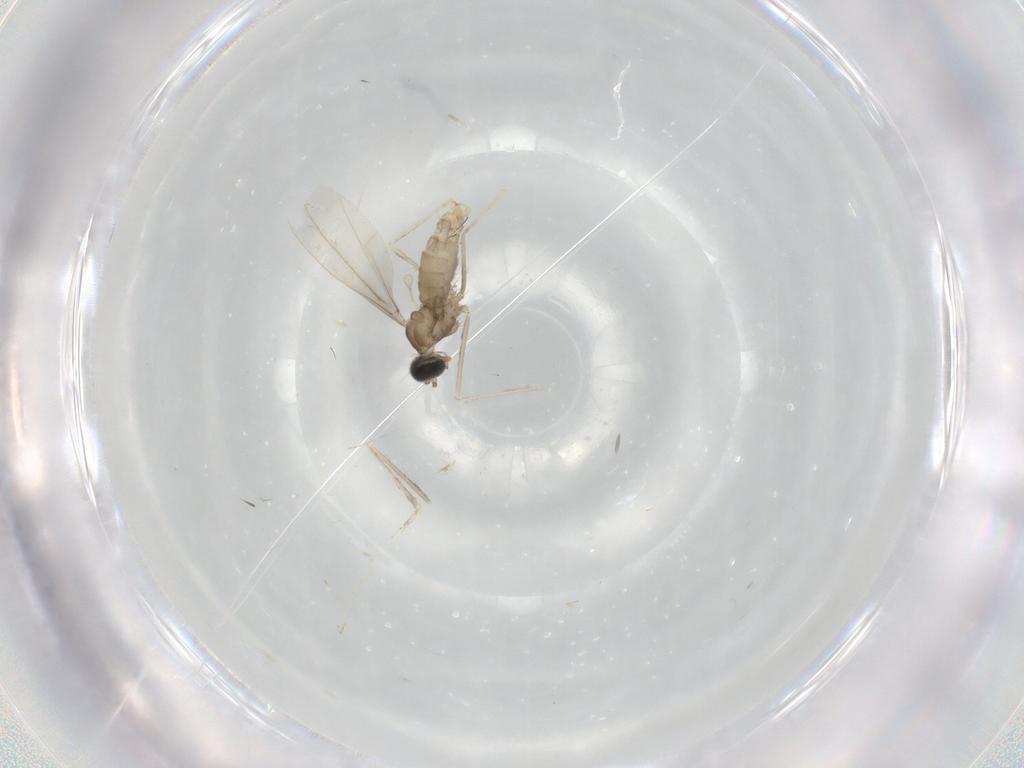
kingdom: Animalia
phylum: Arthropoda
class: Insecta
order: Diptera
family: Cecidomyiidae
